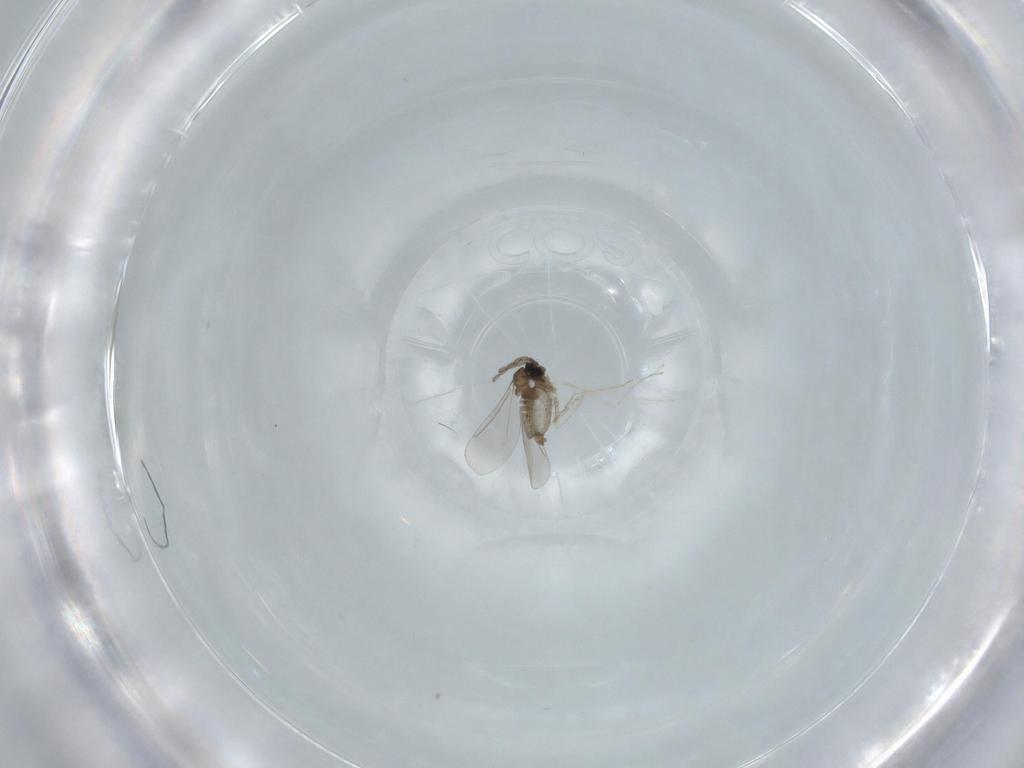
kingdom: Animalia
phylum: Arthropoda
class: Insecta
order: Diptera
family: Cecidomyiidae
